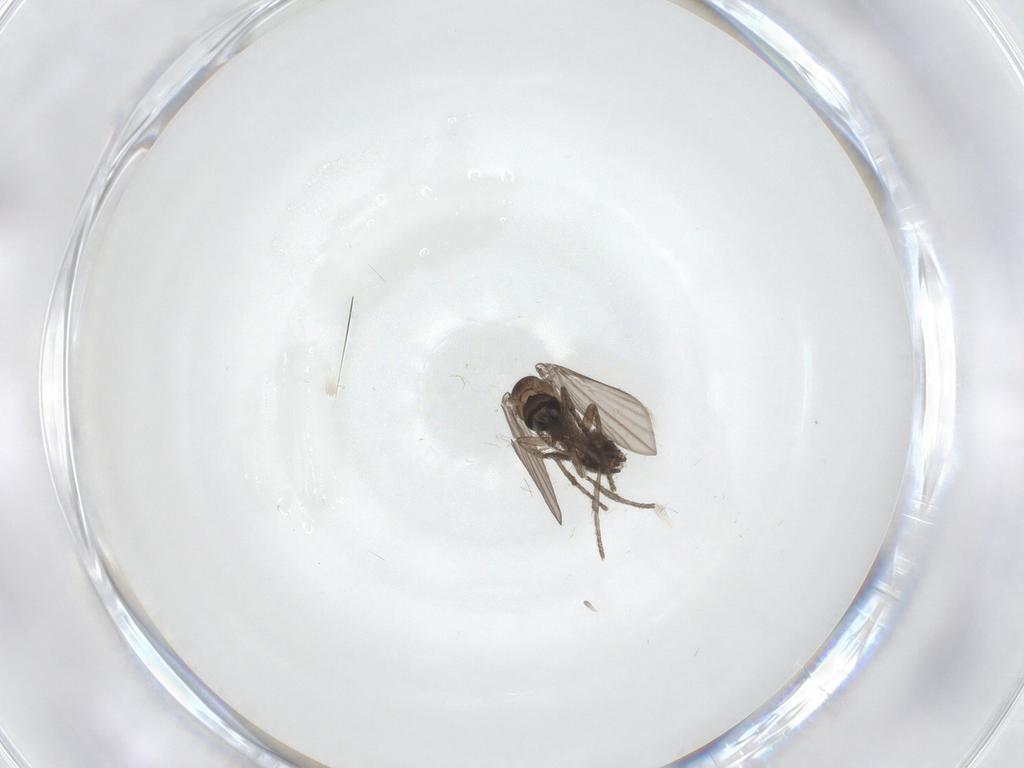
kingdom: Animalia
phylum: Arthropoda
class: Insecta
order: Diptera
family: Psychodidae
